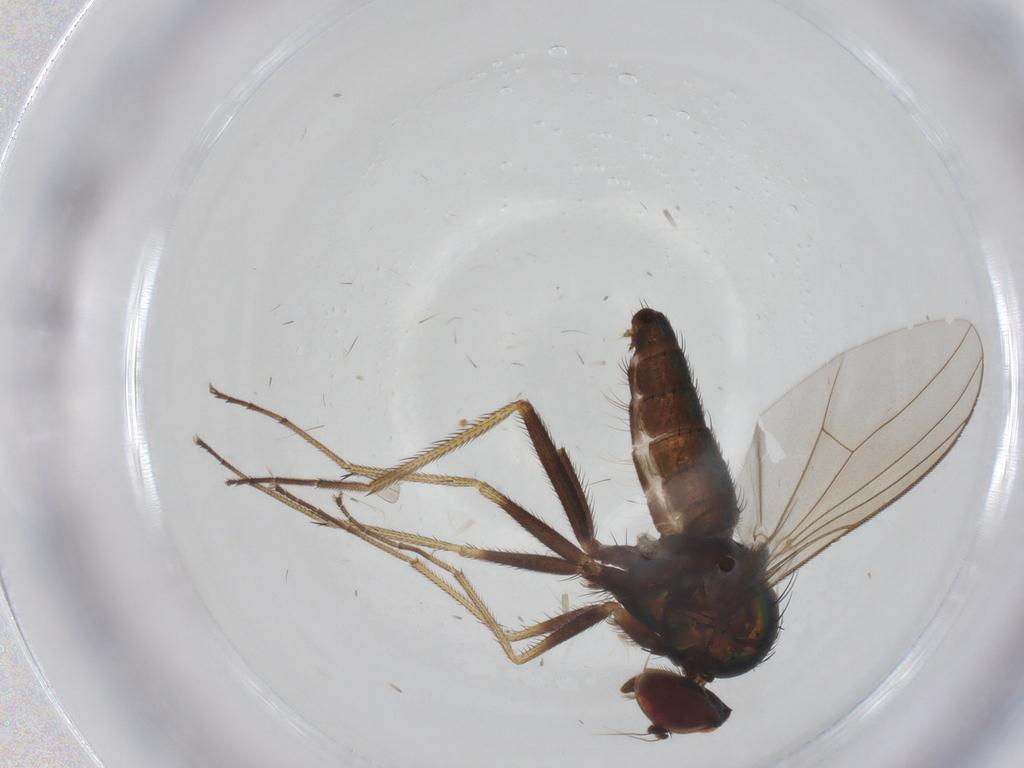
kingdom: Animalia
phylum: Arthropoda
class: Insecta
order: Diptera
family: Dolichopodidae
